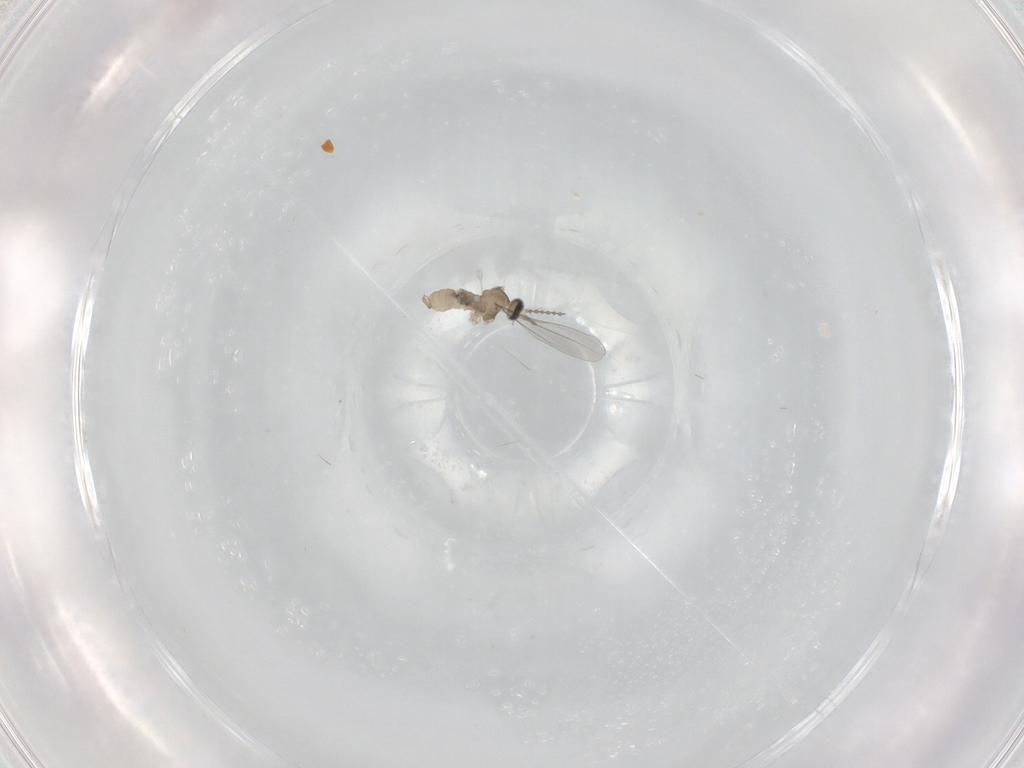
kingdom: Animalia
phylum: Arthropoda
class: Insecta
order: Diptera
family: Cecidomyiidae
